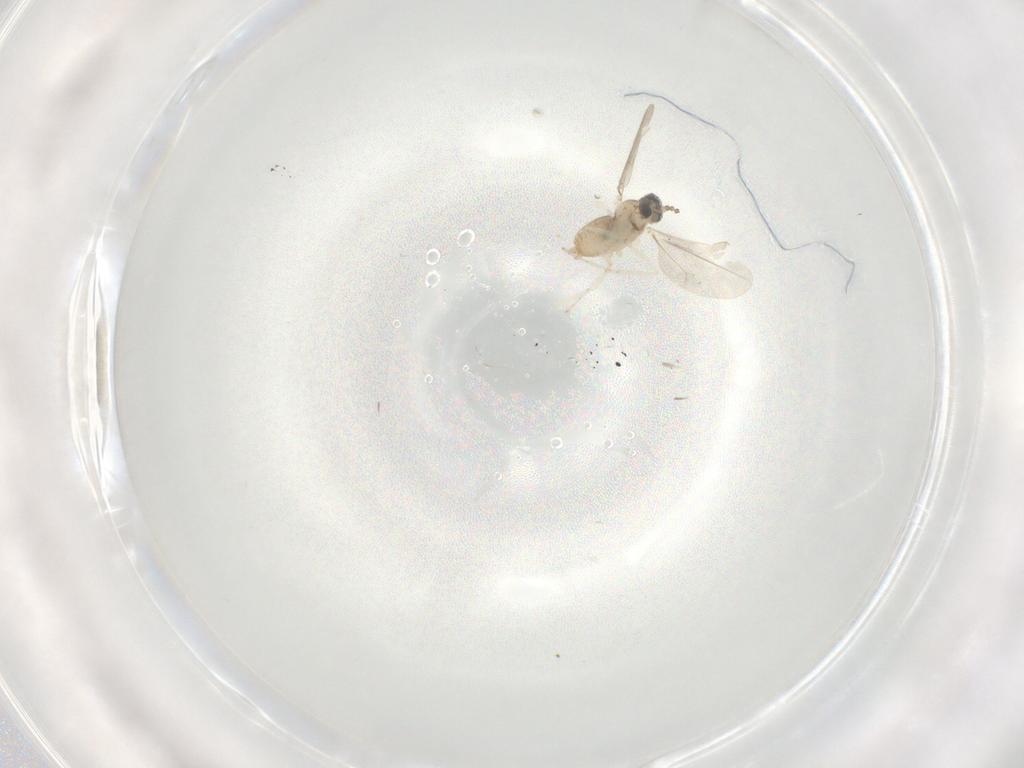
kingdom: Animalia
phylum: Arthropoda
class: Insecta
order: Diptera
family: Cecidomyiidae
